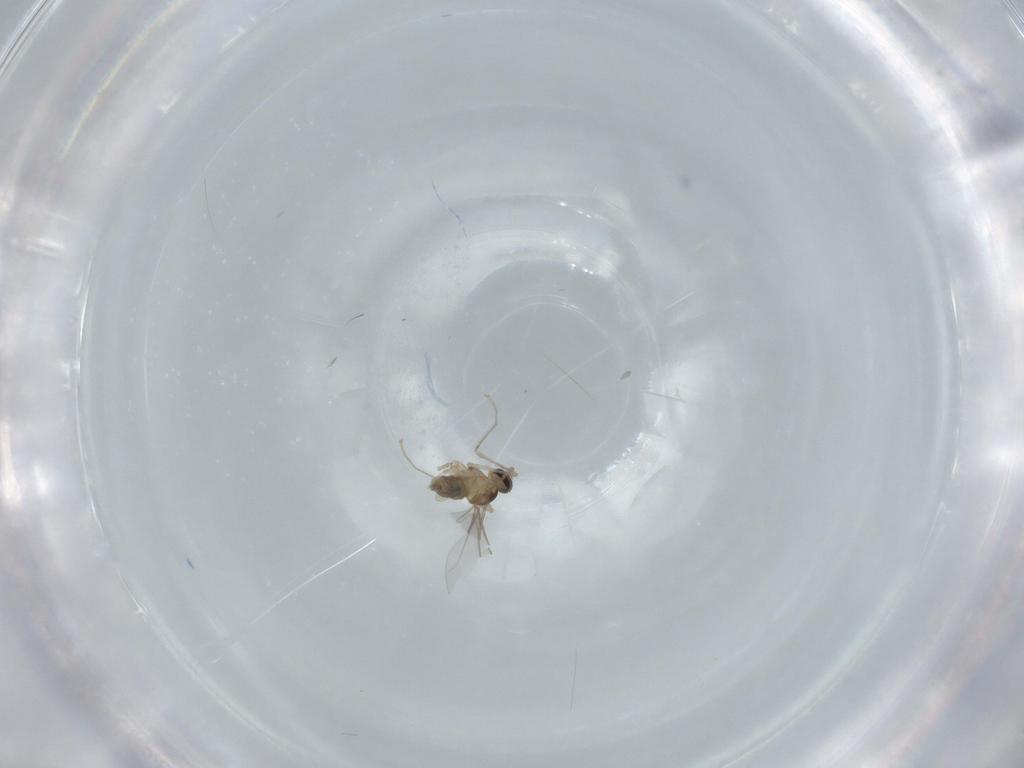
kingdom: Animalia
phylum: Arthropoda
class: Insecta
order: Diptera
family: Cecidomyiidae
